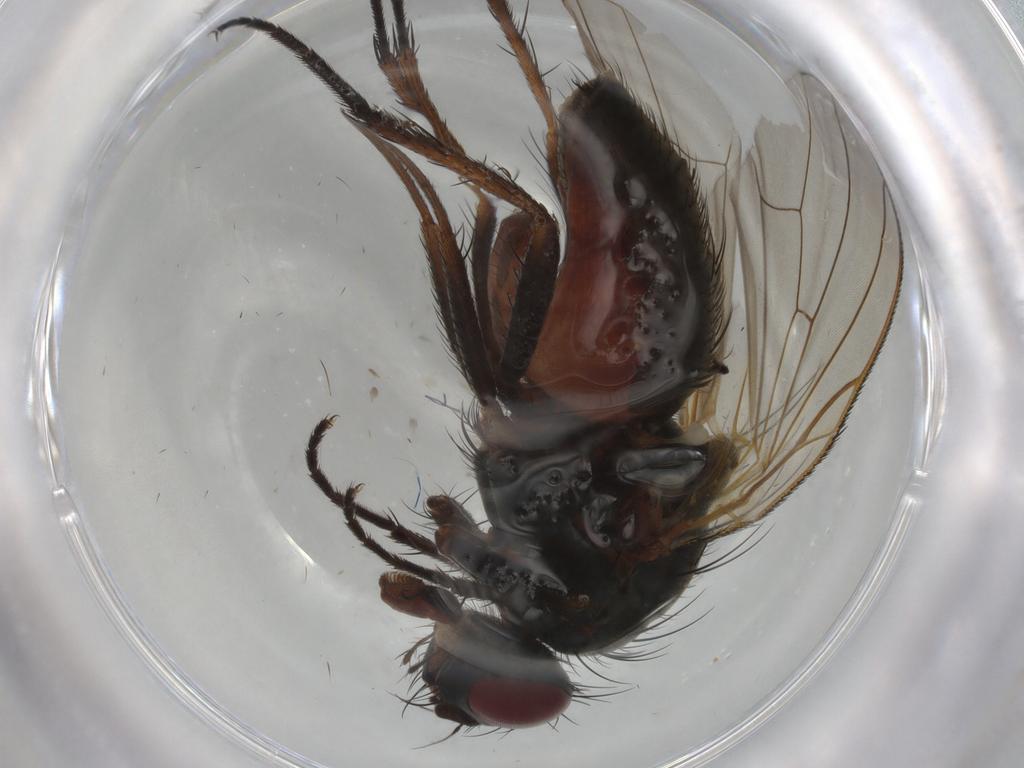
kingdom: Animalia
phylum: Arthropoda
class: Insecta
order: Diptera
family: Anthomyiidae
